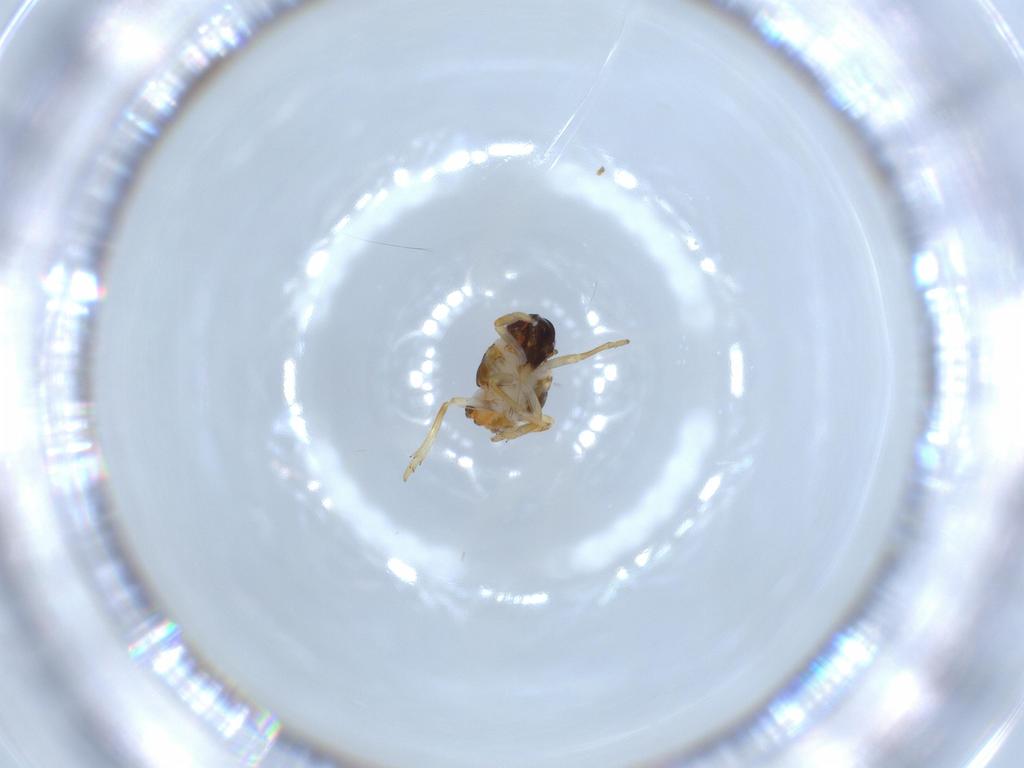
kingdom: Animalia
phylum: Arthropoda
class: Insecta
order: Hemiptera
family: Issidae
